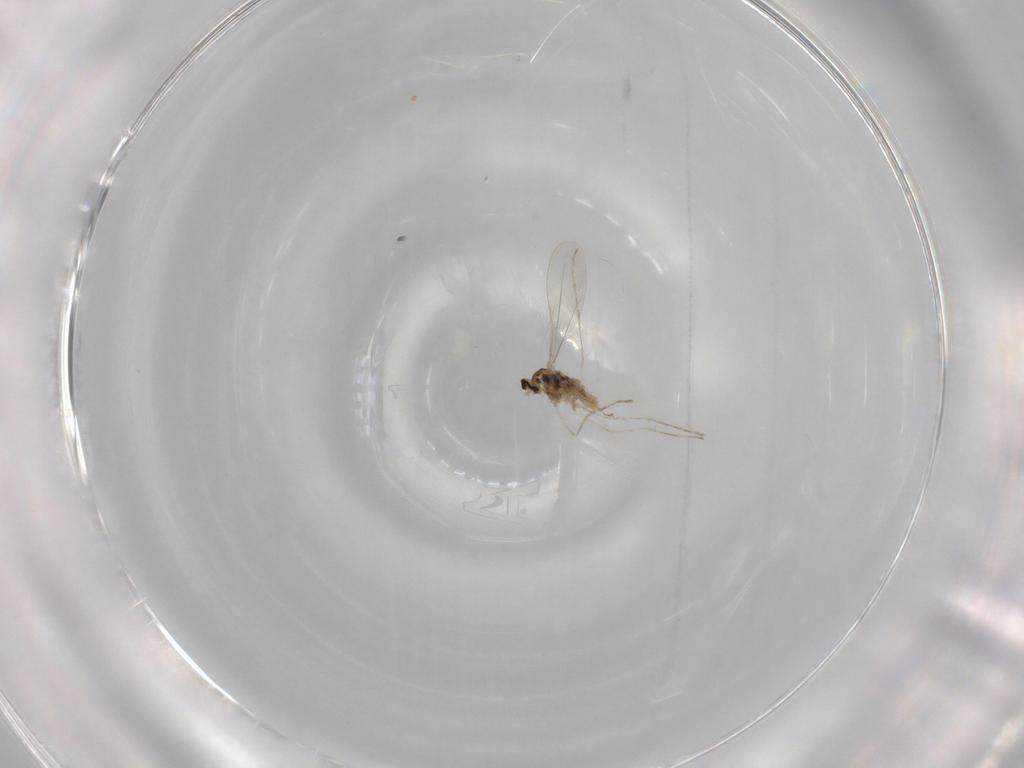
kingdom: Animalia
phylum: Arthropoda
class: Insecta
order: Diptera
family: Cecidomyiidae
